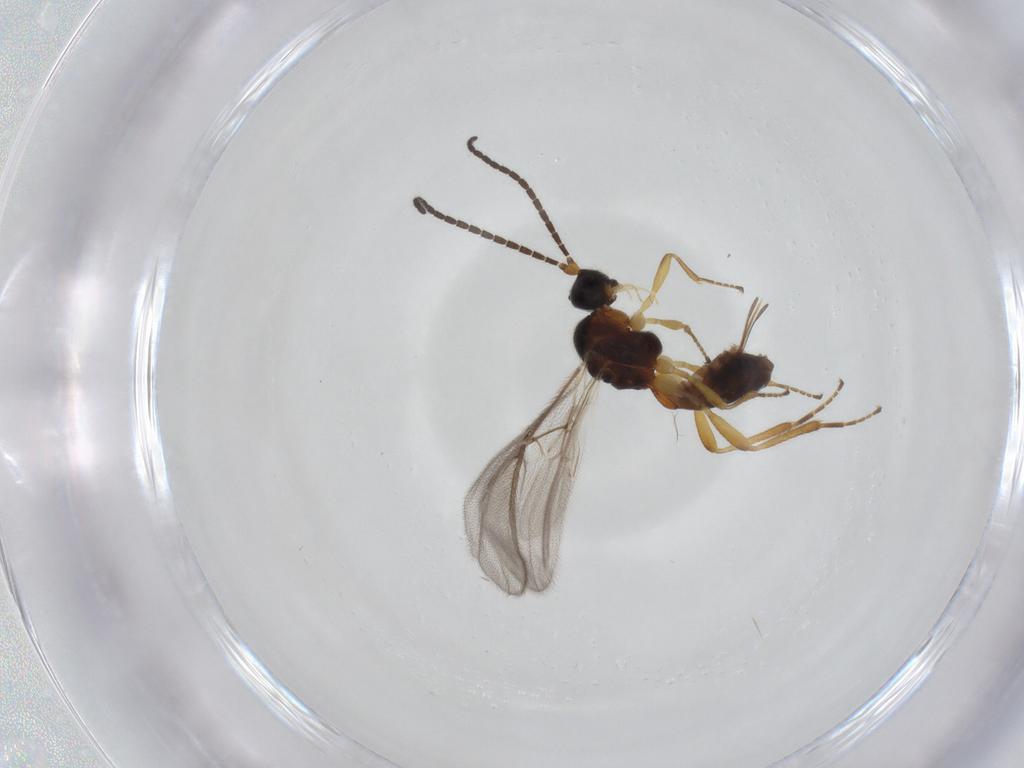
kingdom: Animalia
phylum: Arthropoda
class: Insecta
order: Hymenoptera
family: Braconidae
